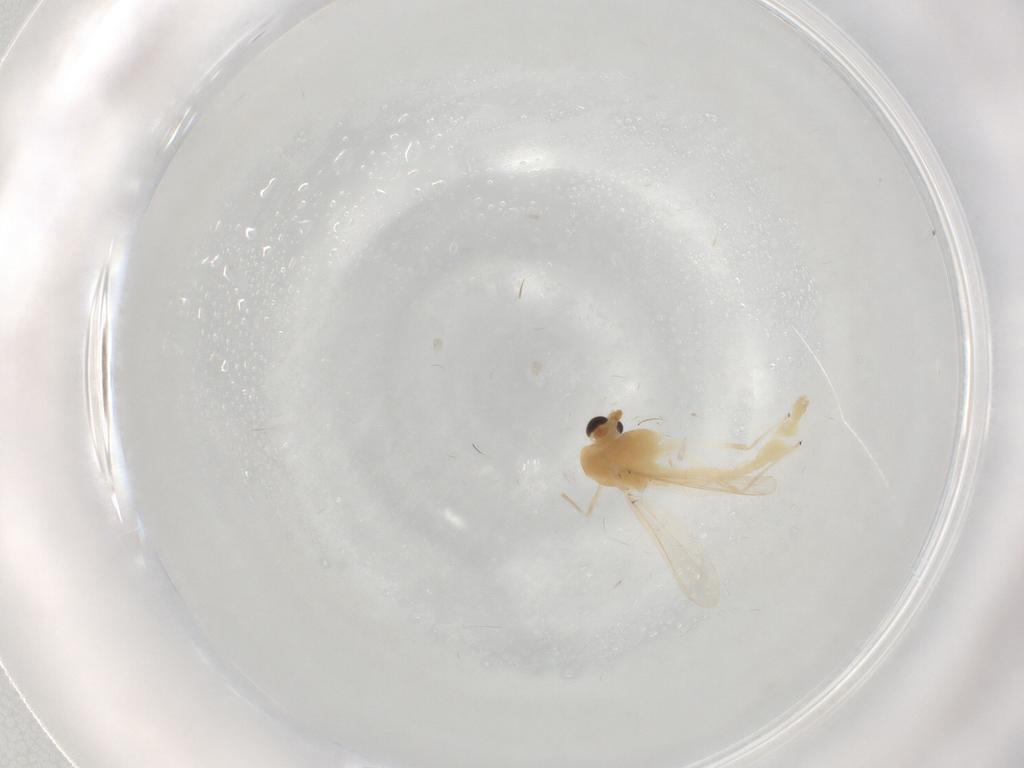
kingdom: Animalia
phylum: Arthropoda
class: Insecta
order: Diptera
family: Chironomidae
